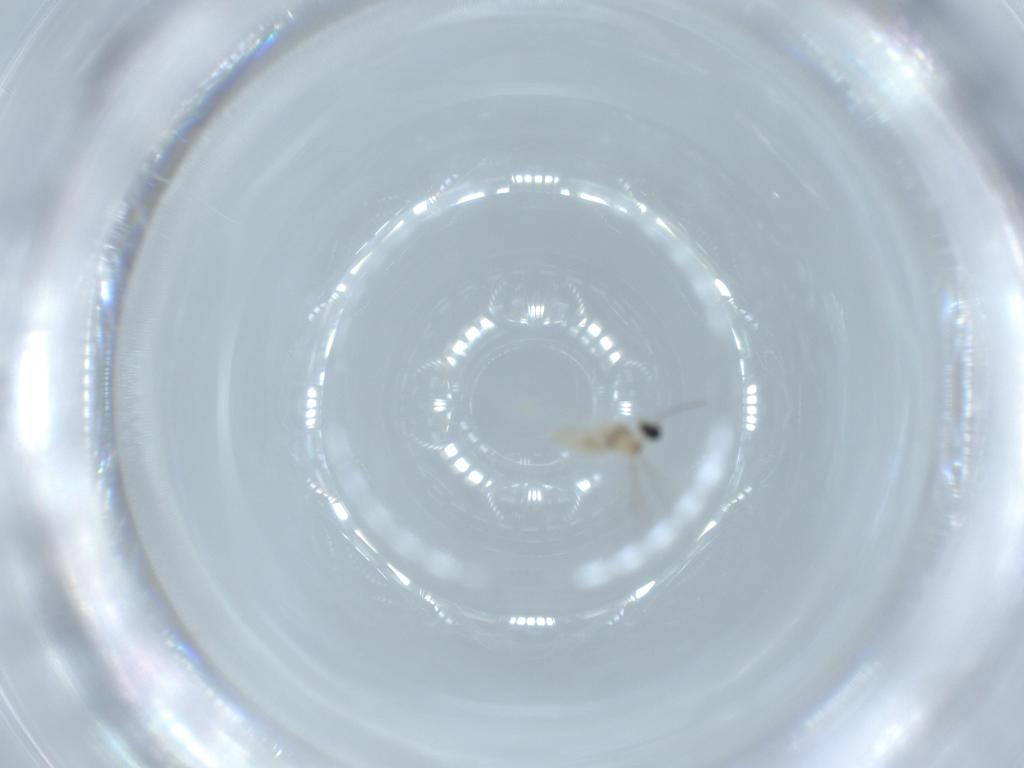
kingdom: Animalia
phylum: Arthropoda
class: Insecta
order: Diptera
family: Cecidomyiidae
